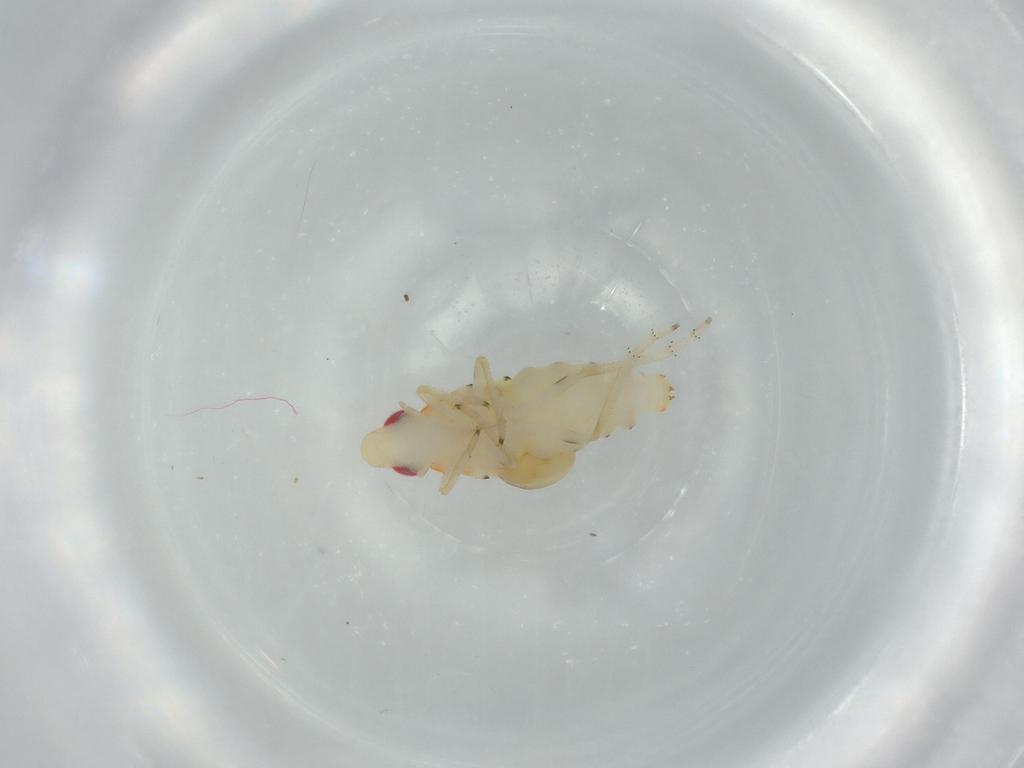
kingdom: Animalia
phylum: Arthropoda
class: Insecta
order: Hemiptera
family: Tropiduchidae
